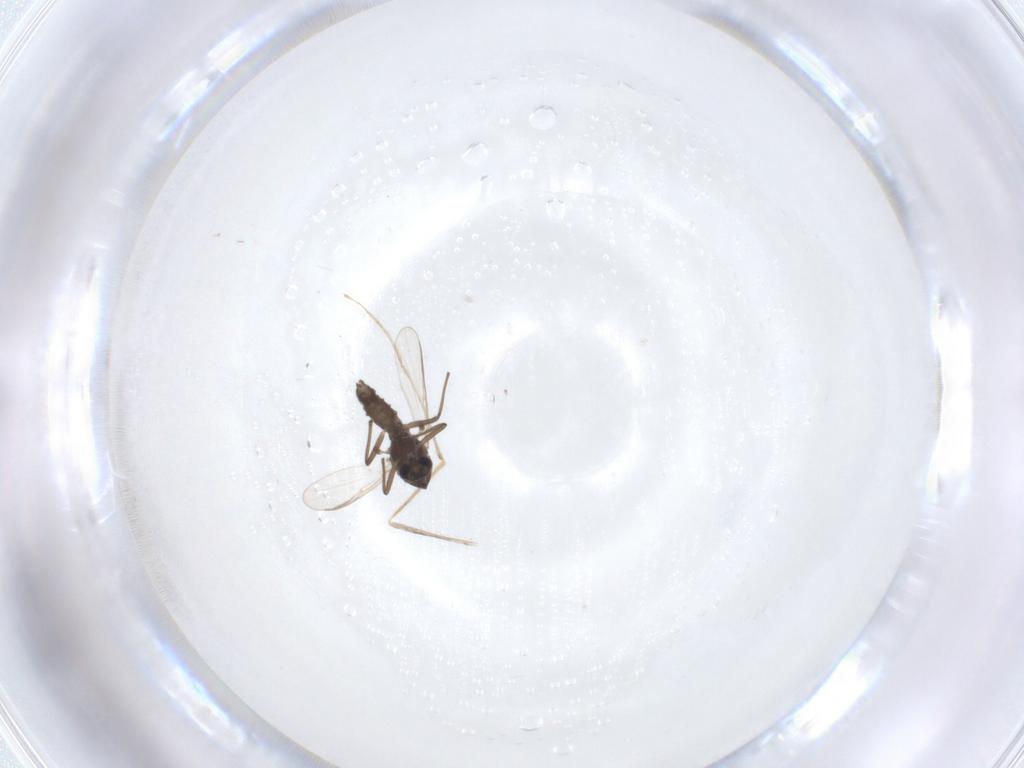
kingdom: Animalia
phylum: Arthropoda
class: Insecta
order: Diptera
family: Chironomidae
